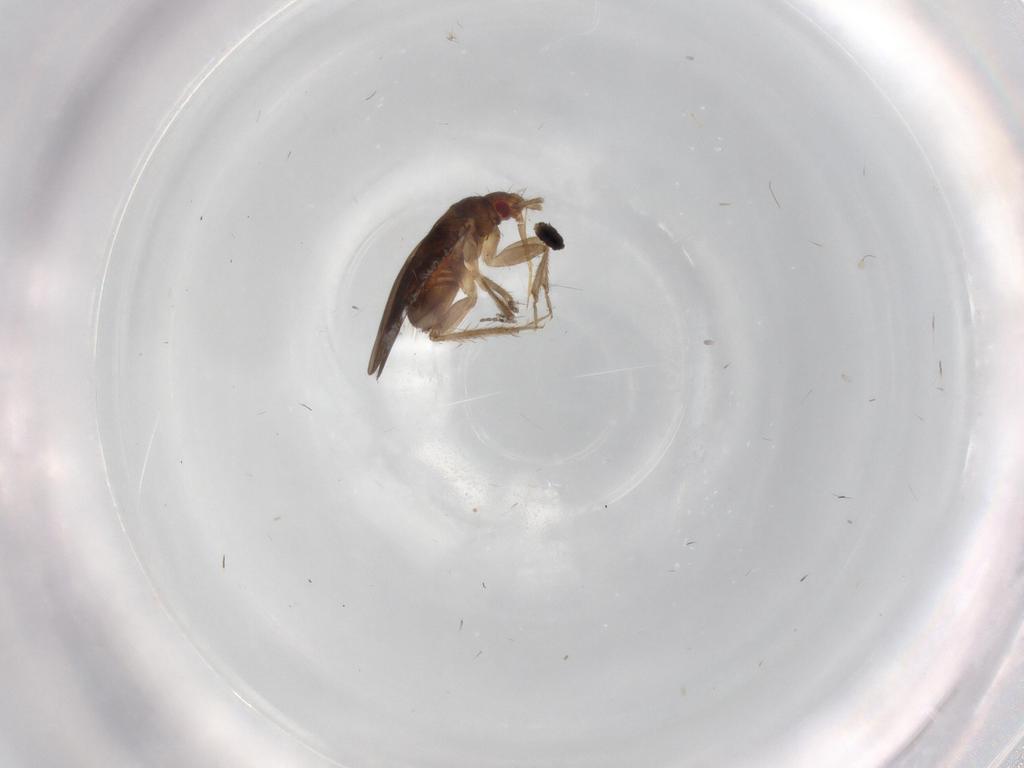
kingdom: Animalia
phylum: Arthropoda
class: Insecta
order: Hemiptera
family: Ceratocombidae
